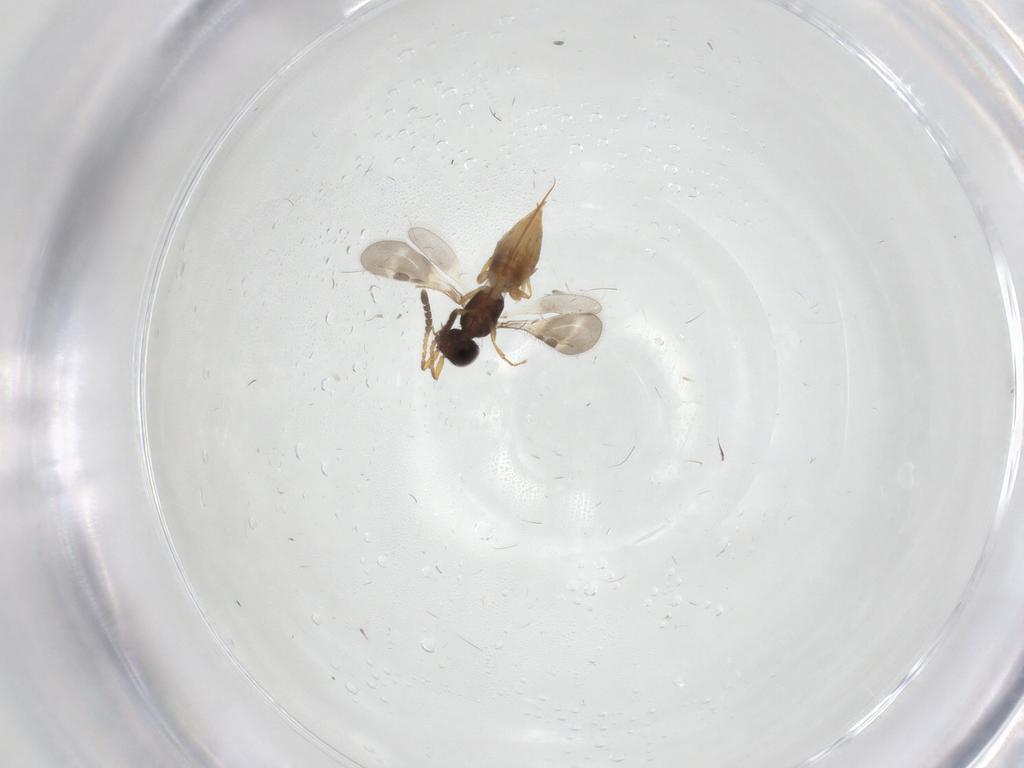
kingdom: Animalia
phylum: Arthropoda
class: Insecta
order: Hymenoptera
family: Bethylidae
